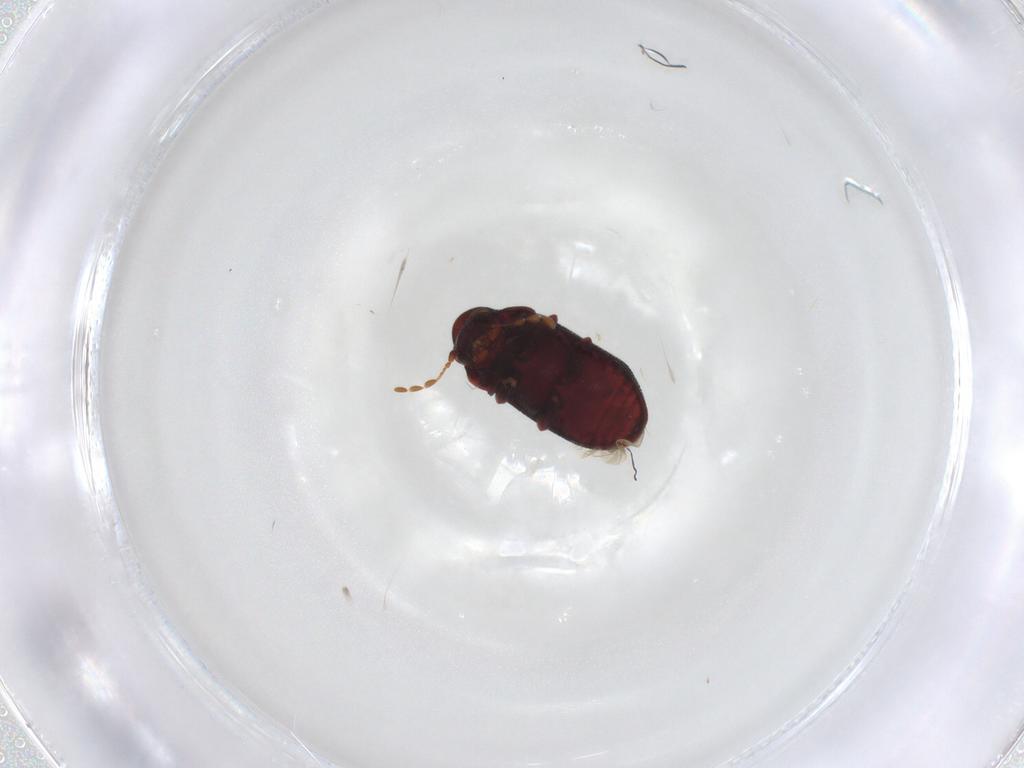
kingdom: Animalia
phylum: Arthropoda
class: Insecta
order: Coleoptera
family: Ptinidae
